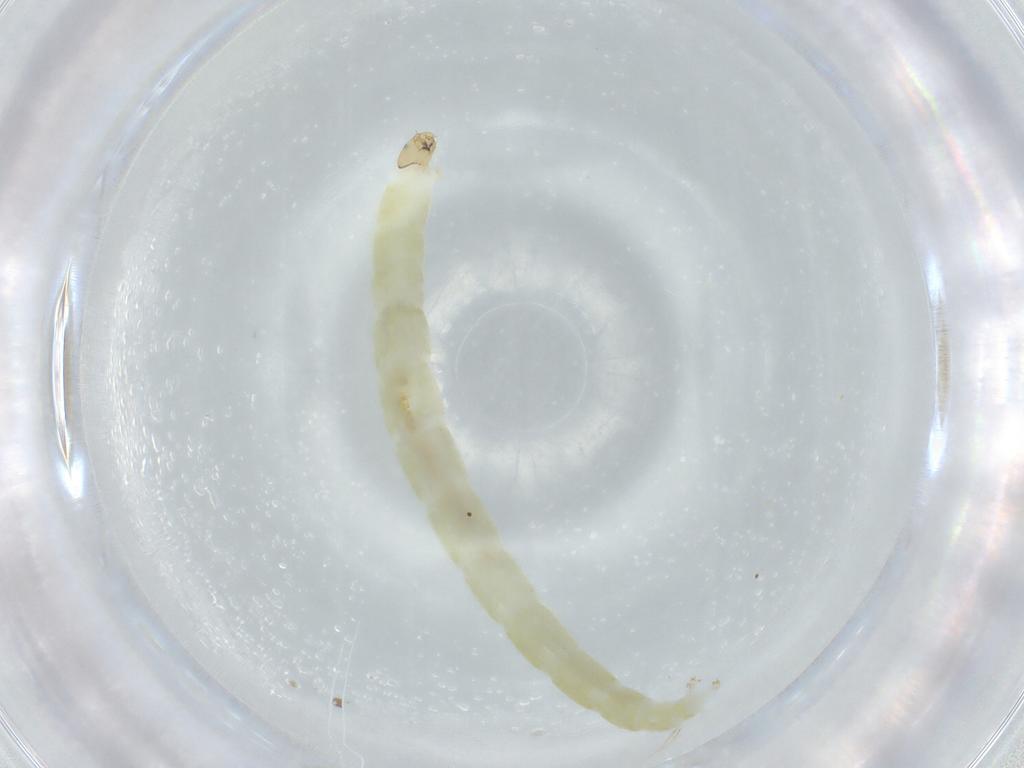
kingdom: Animalia
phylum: Arthropoda
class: Insecta
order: Diptera
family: Chironomidae
